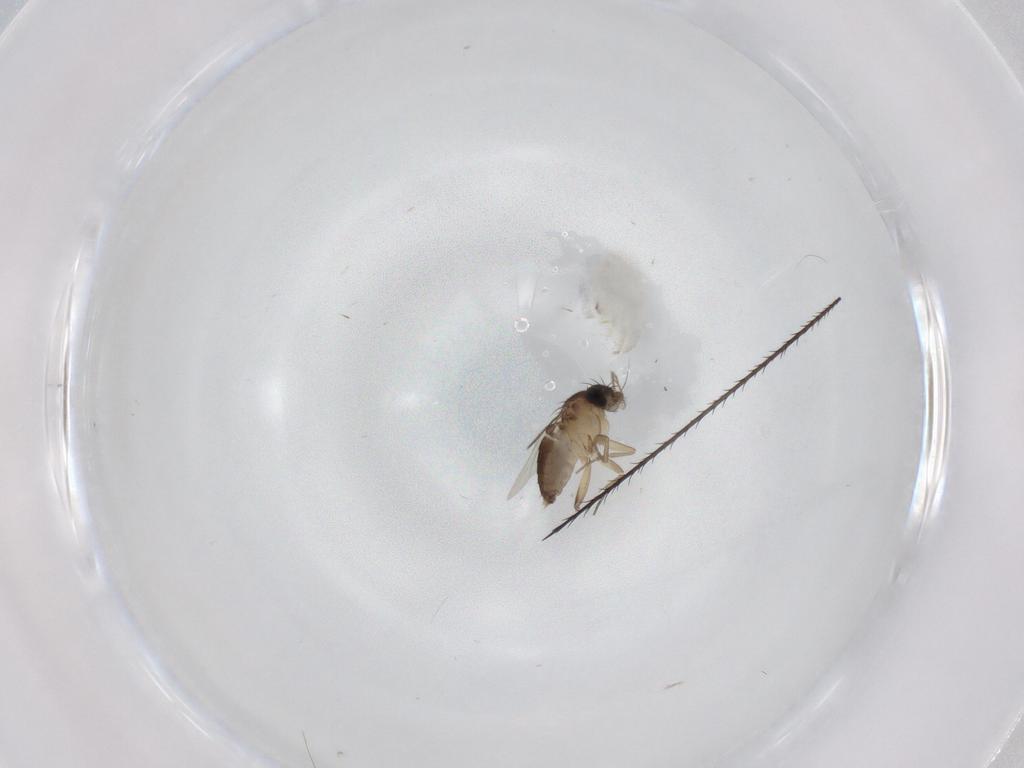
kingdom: Animalia
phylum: Arthropoda
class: Insecta
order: Diptera
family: Phoridae
